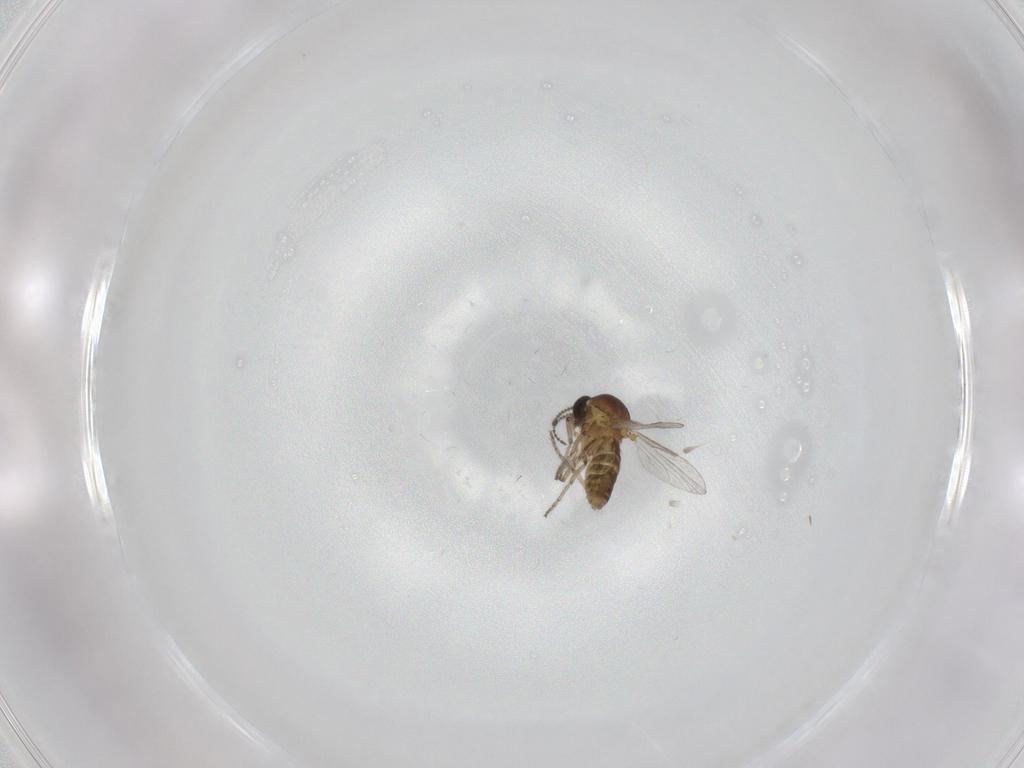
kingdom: Animalia
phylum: Arthropoda
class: Insecta
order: Diptera
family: Ceratopogonidae
